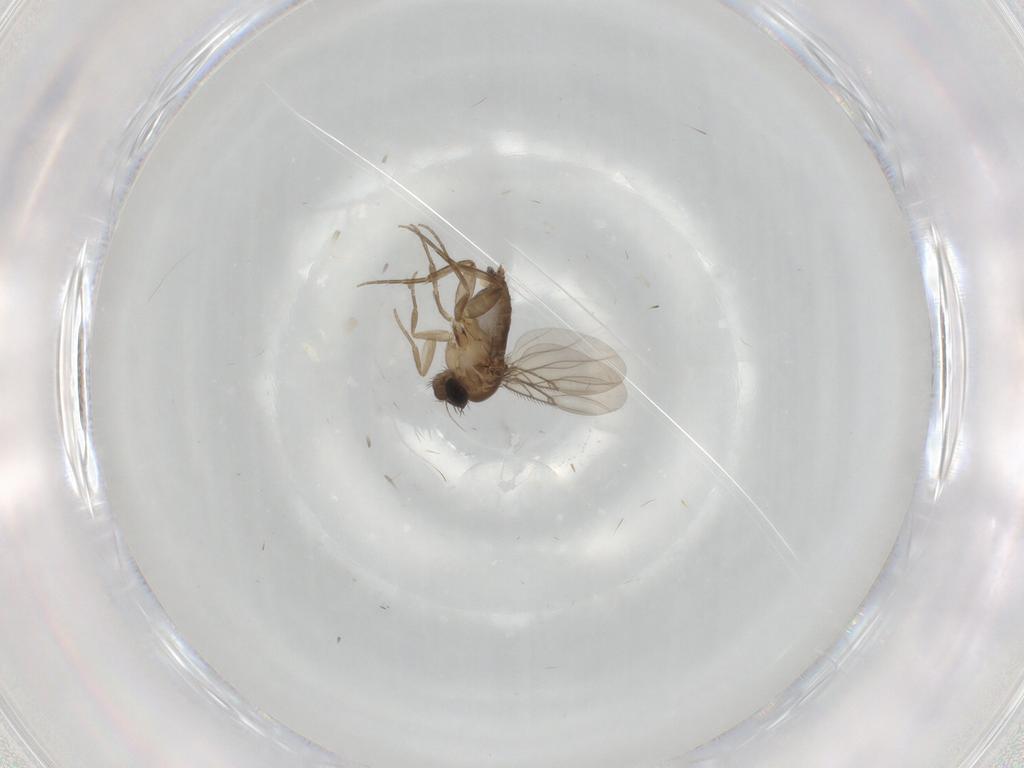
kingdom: Animalia
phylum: Arthropoda
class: Insecta
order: Diptera
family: Phoridae
